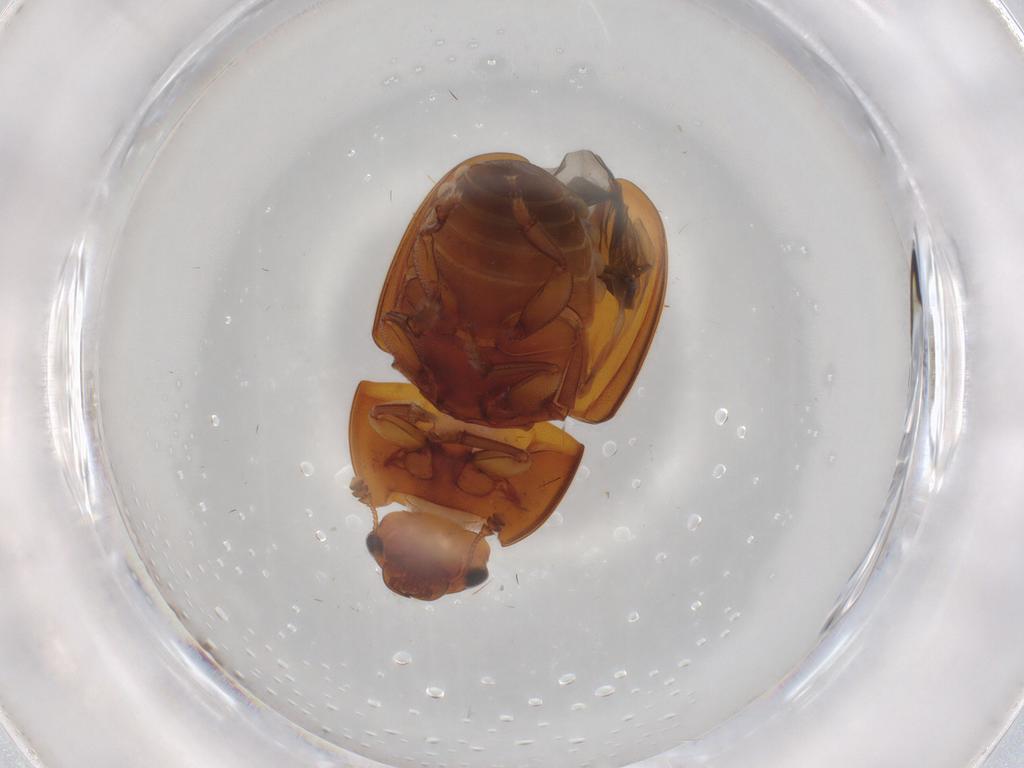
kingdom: Animalia
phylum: Arthropoda
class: Insecta
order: Coleoptera
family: Nitidulidae
